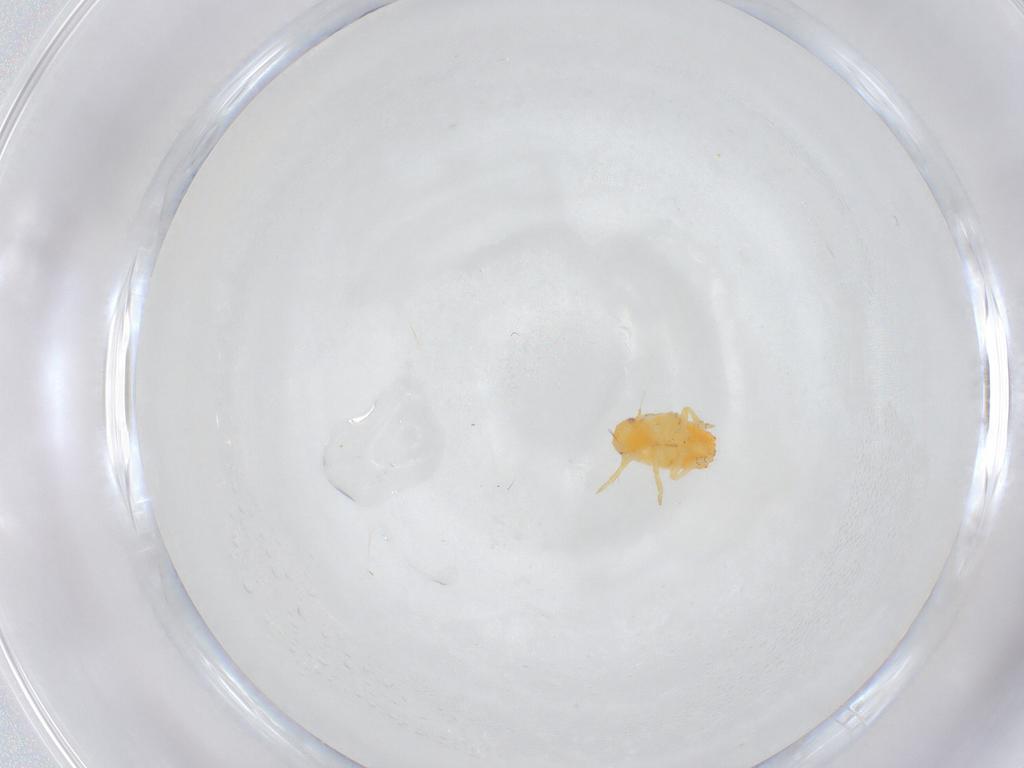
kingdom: Animalia
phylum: Arthropoda
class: Insecta
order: Hemiptera
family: Flatidae
